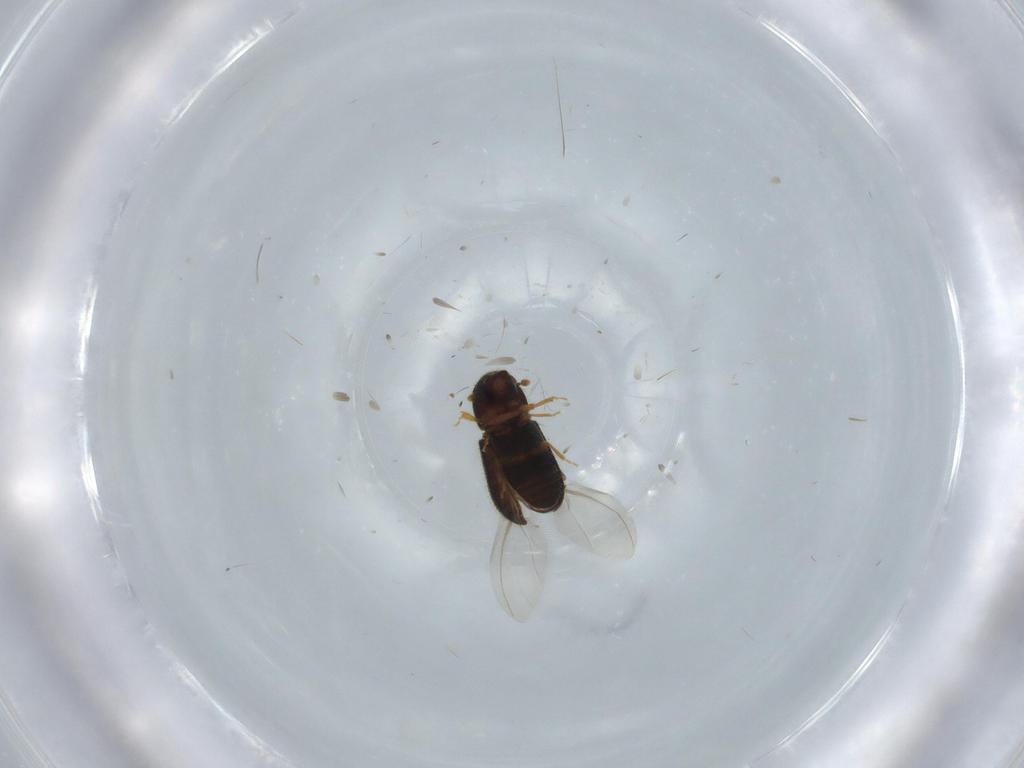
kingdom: Animalia
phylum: Arthropoda
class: Insecta
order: Coleoptera
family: Curculionidae
